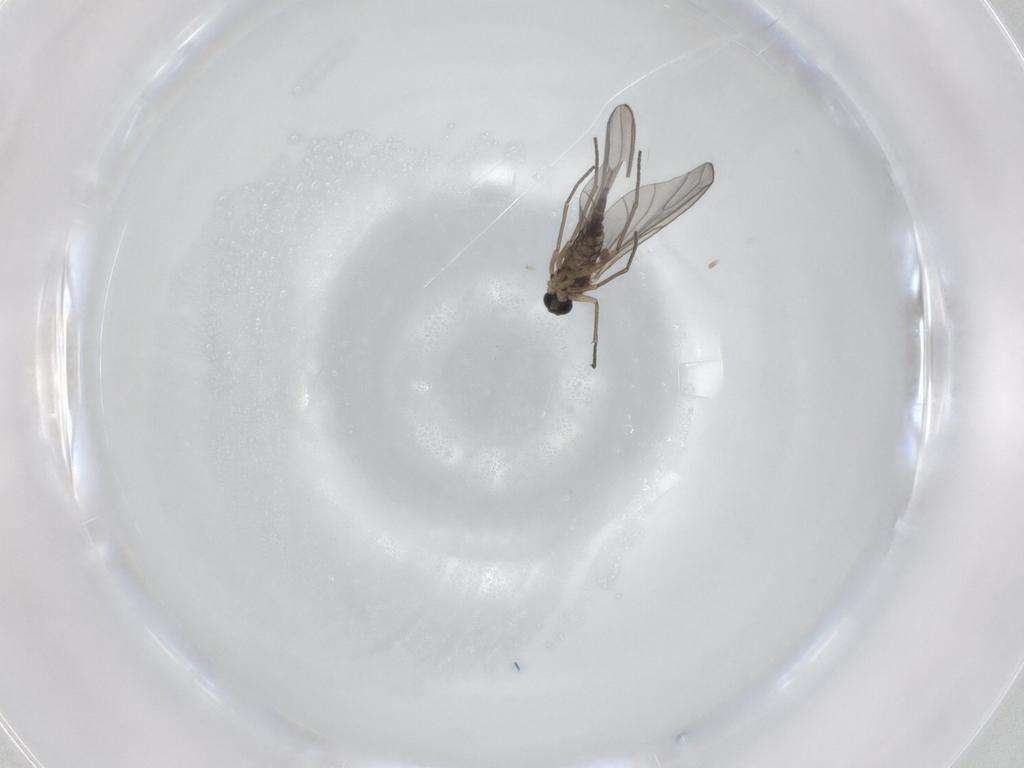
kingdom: Animalia
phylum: Arthropoda
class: Insecta
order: Diptera
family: Sciaridae
